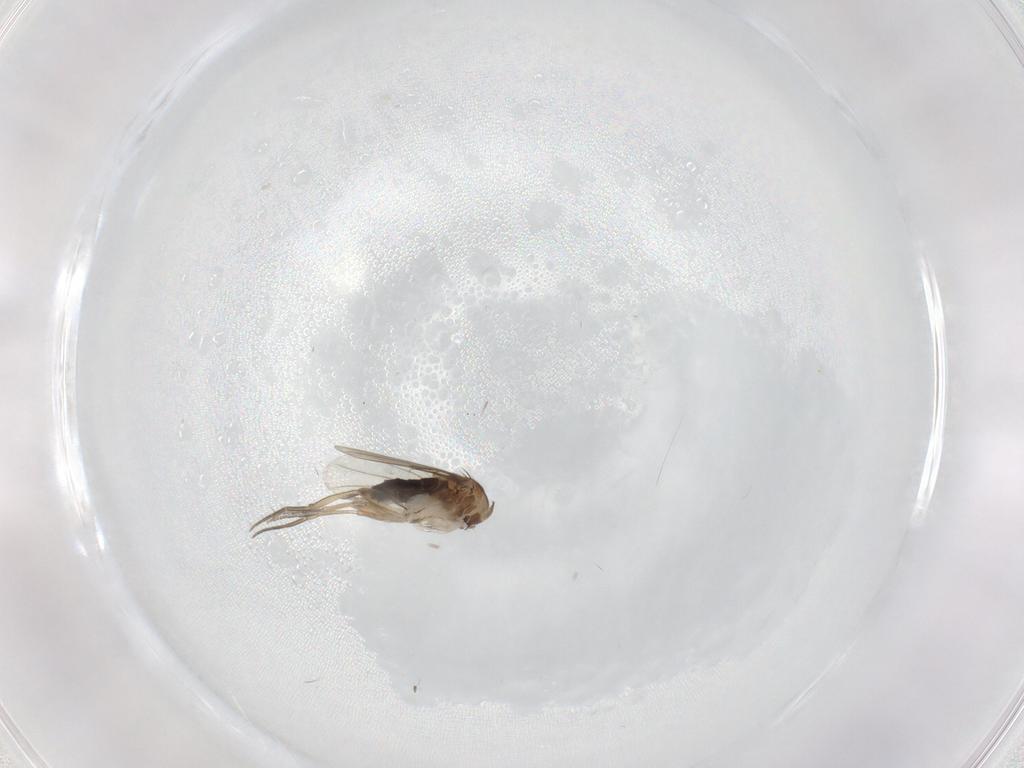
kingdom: Animalia
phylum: Arthropoda
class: Insecta
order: Diptera
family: Phoridae
